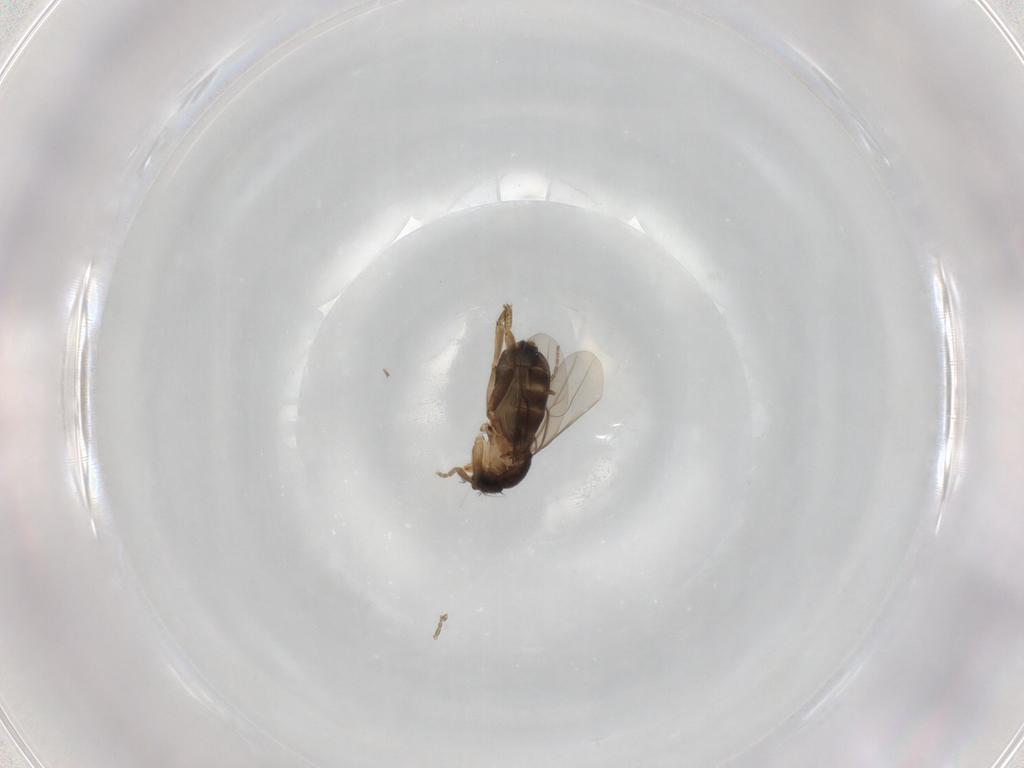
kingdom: Animalia
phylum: Arthropoda
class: Insecta
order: Diptera
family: Phoridae
